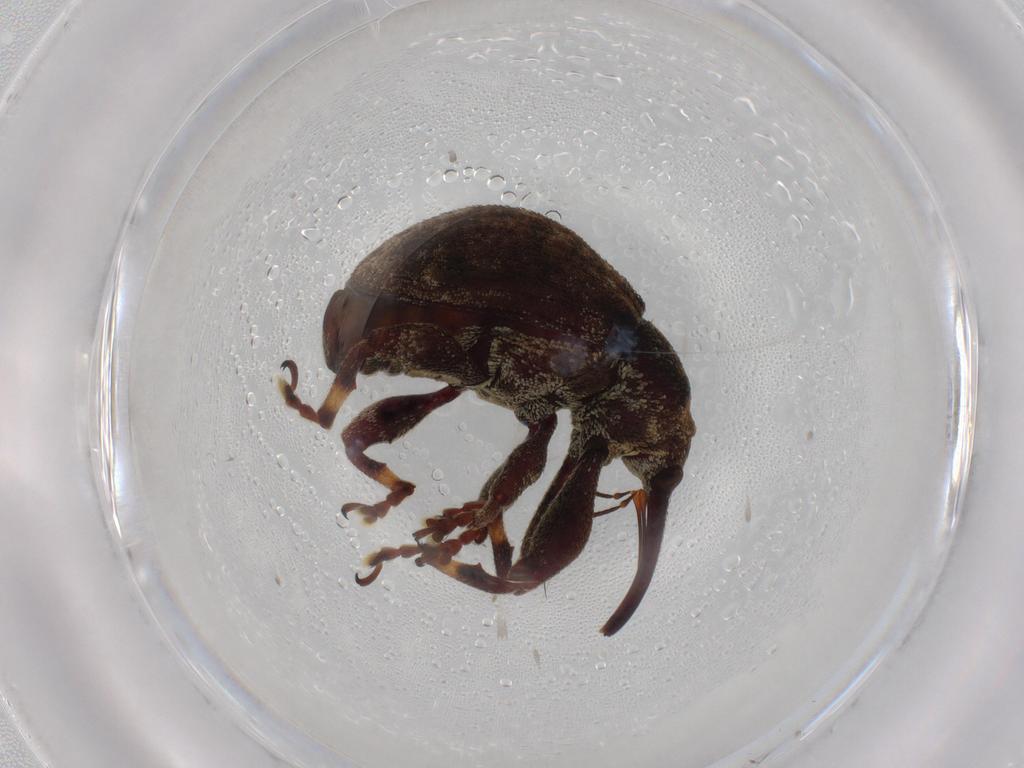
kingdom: Animalia
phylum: Arthropoda
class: Insecta
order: Coleoptera
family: Curculionidae
